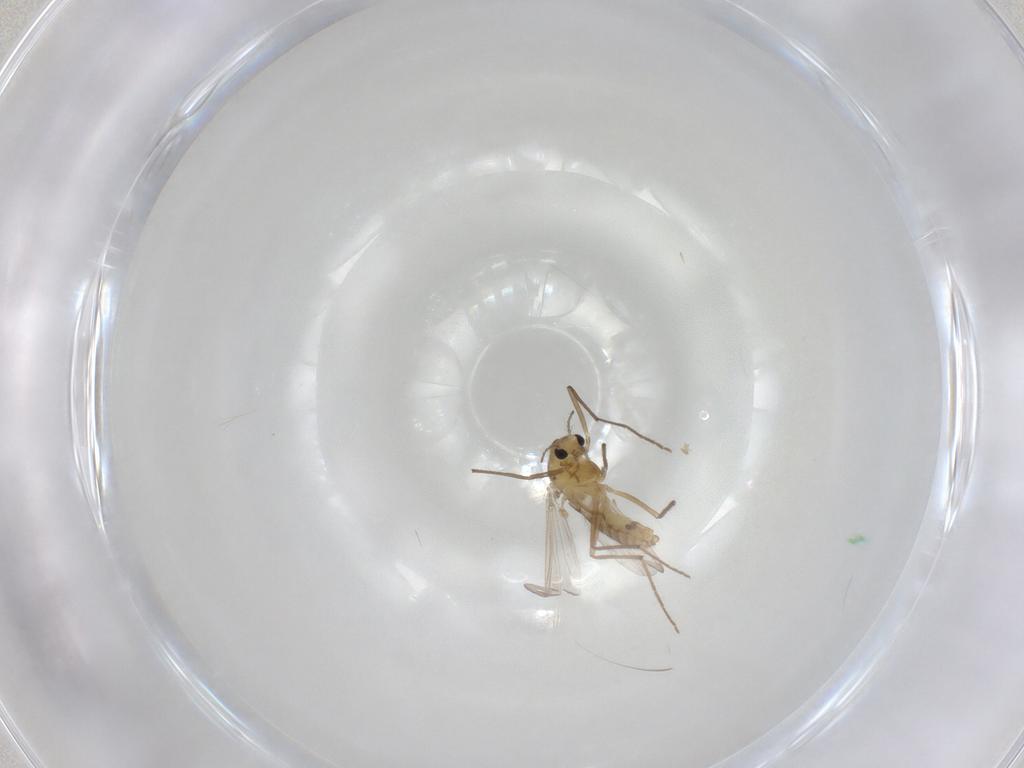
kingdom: Animalia
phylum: Arthropoda
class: Insecta
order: Diptera
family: Chironomidae
